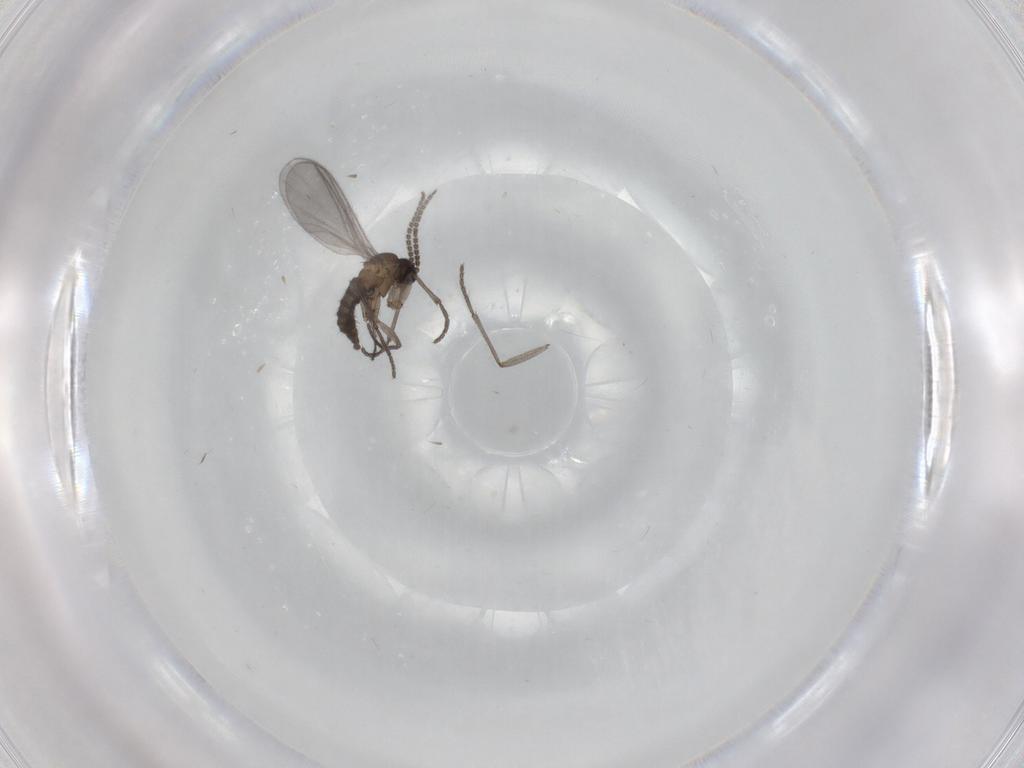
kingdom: Animalia
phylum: Arthropoda
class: Insecta
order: Diptera
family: Sciaridae
